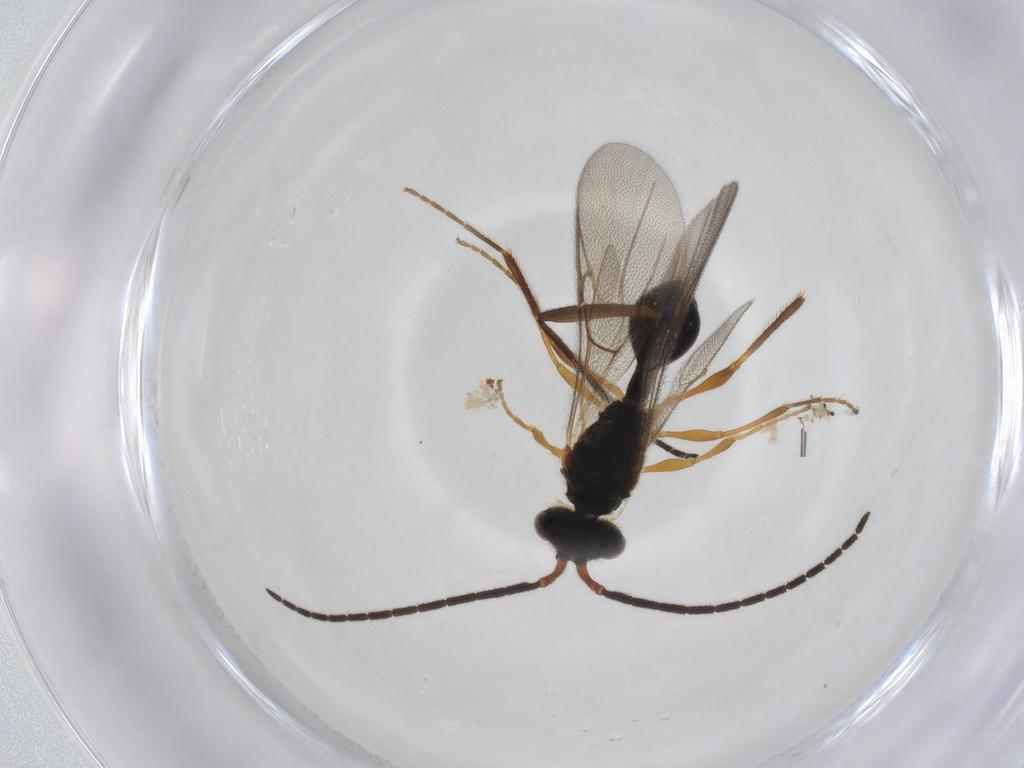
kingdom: Animalia
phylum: Arthropoda
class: Insecta
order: Hymenoptera
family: Diapriidae
